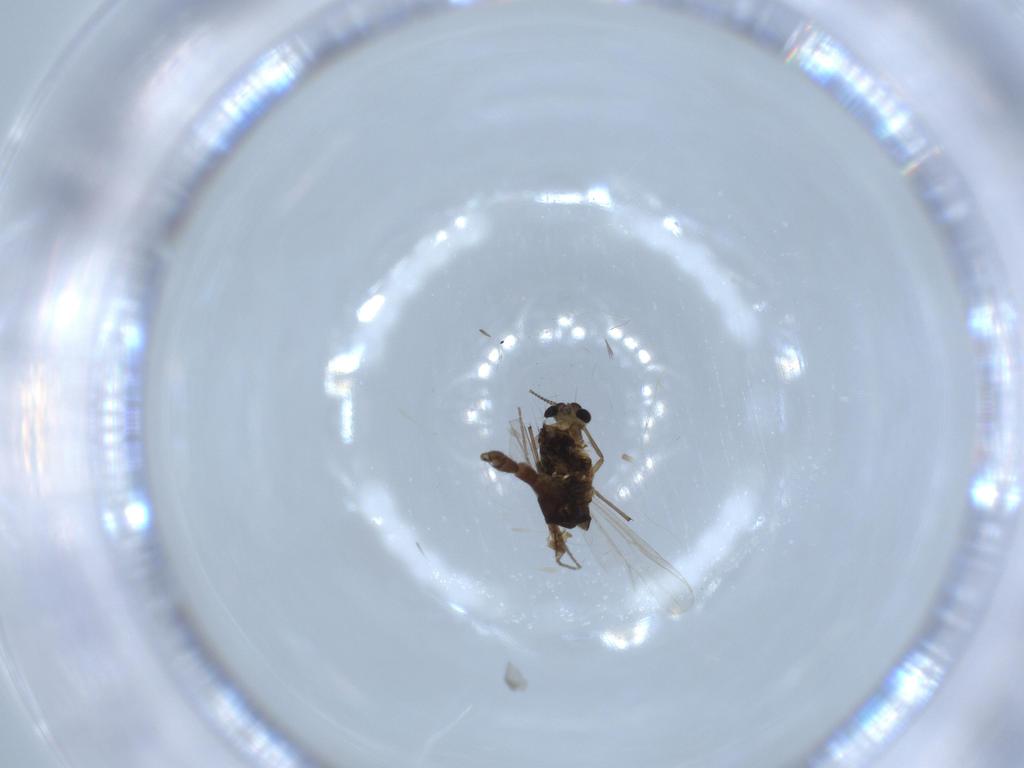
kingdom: Animalia
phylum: Arthropoda
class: Insecta
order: Diptera
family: Chironomidae
